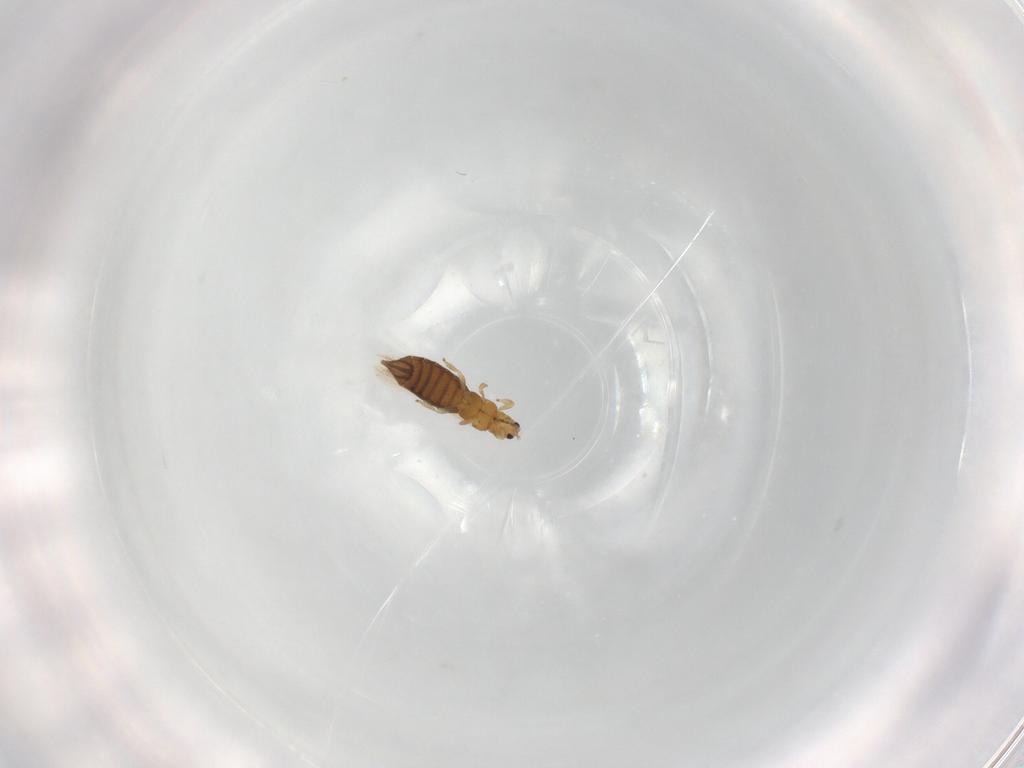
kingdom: Animalia
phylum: Arthropoda
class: Insecta
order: Thysanoptera
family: Thripidae
